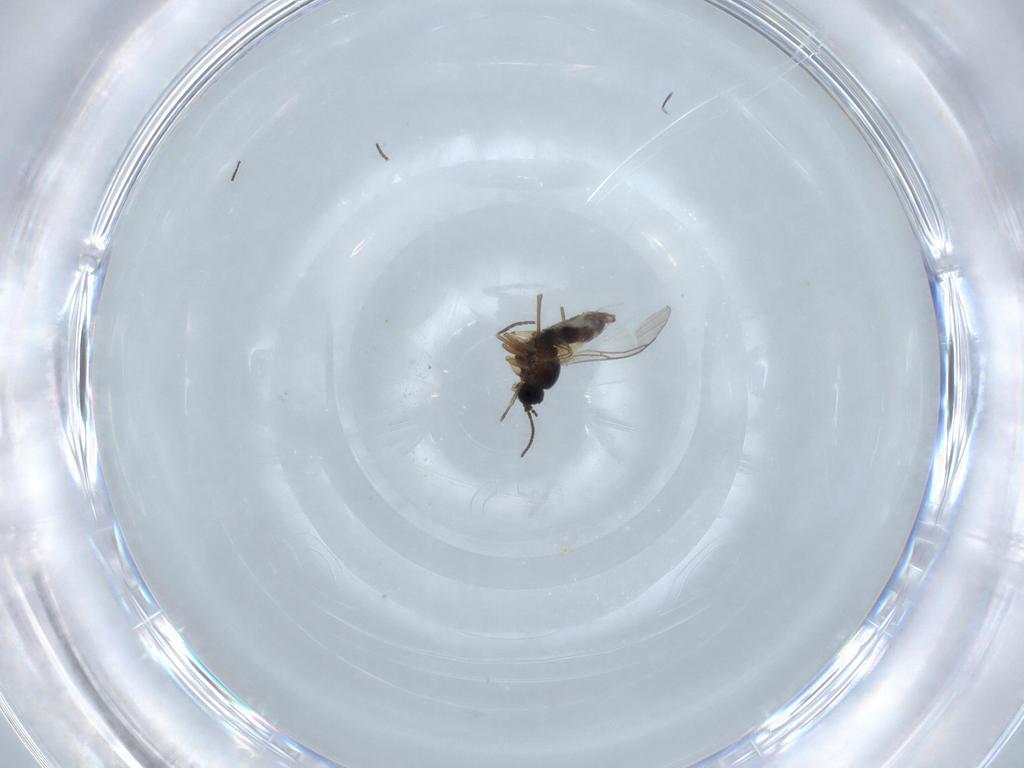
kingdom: Animalia
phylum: Arthropoda
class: Insecta
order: Diptera
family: Sciaridae
